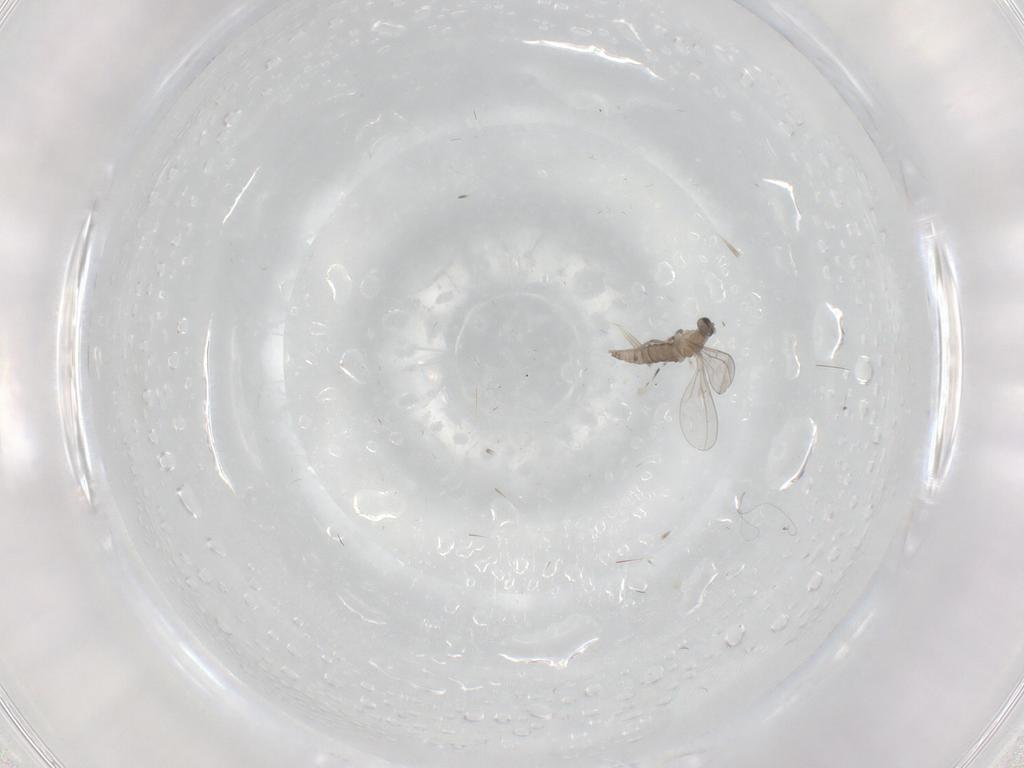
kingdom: Animalia
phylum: Arthropoda
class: Insecta
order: Diptera
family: Cecidomyiidae
